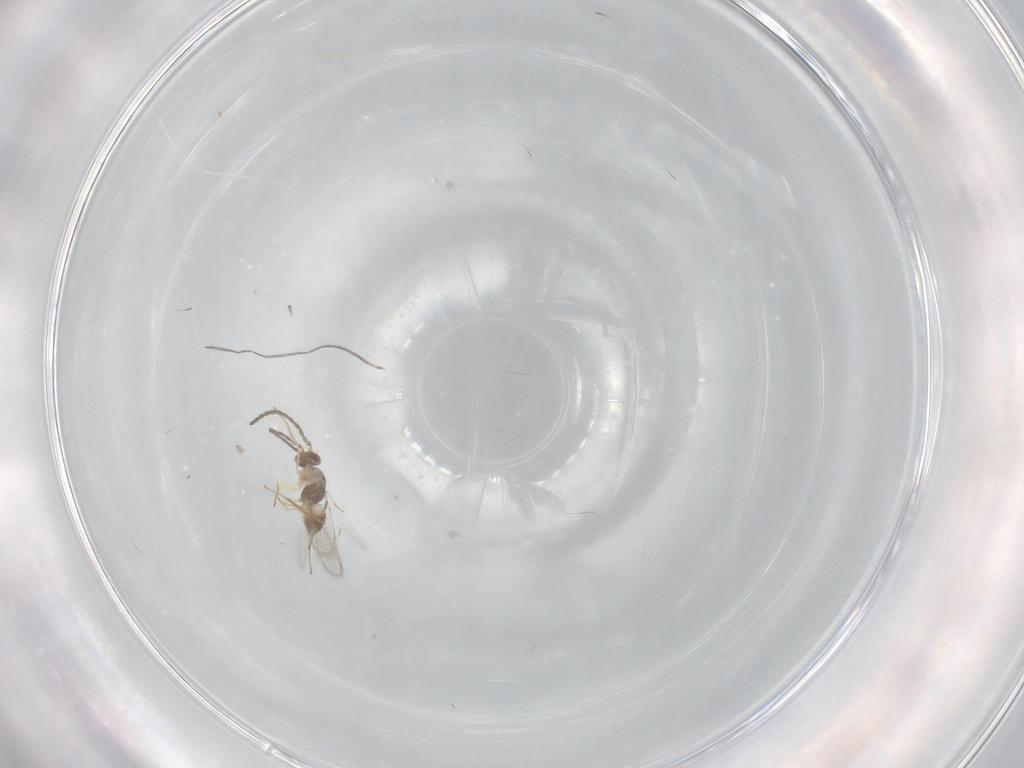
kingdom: Animalia
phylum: Arthropoda
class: Insecta
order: Hymenoptera
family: Mymaridae
